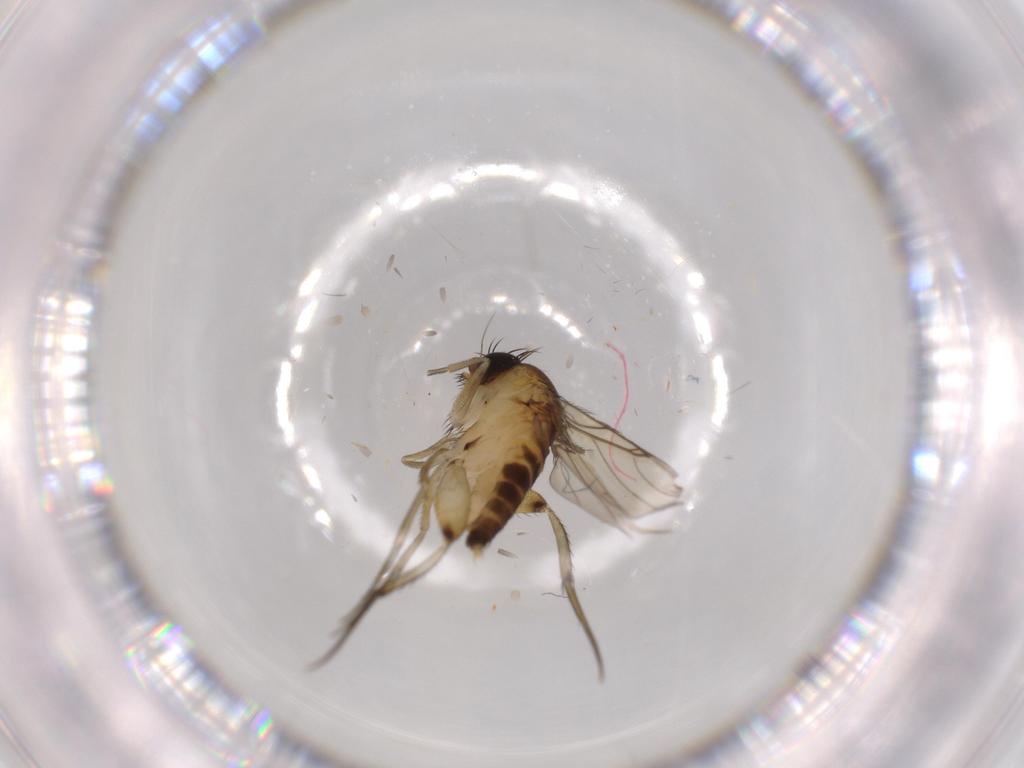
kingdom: Animalia
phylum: Arthropoda
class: Insecta
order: Diptera
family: Phoridae
